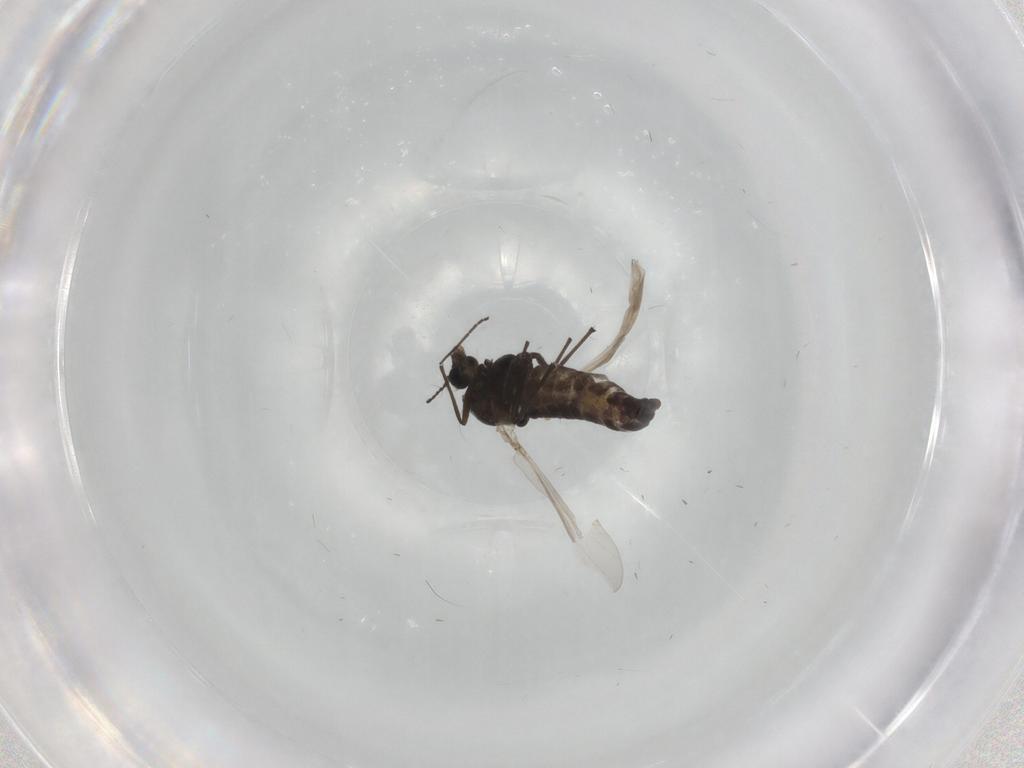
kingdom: Animalia
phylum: Arthropoda
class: Insecta
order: Diptera
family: Chironomidae
